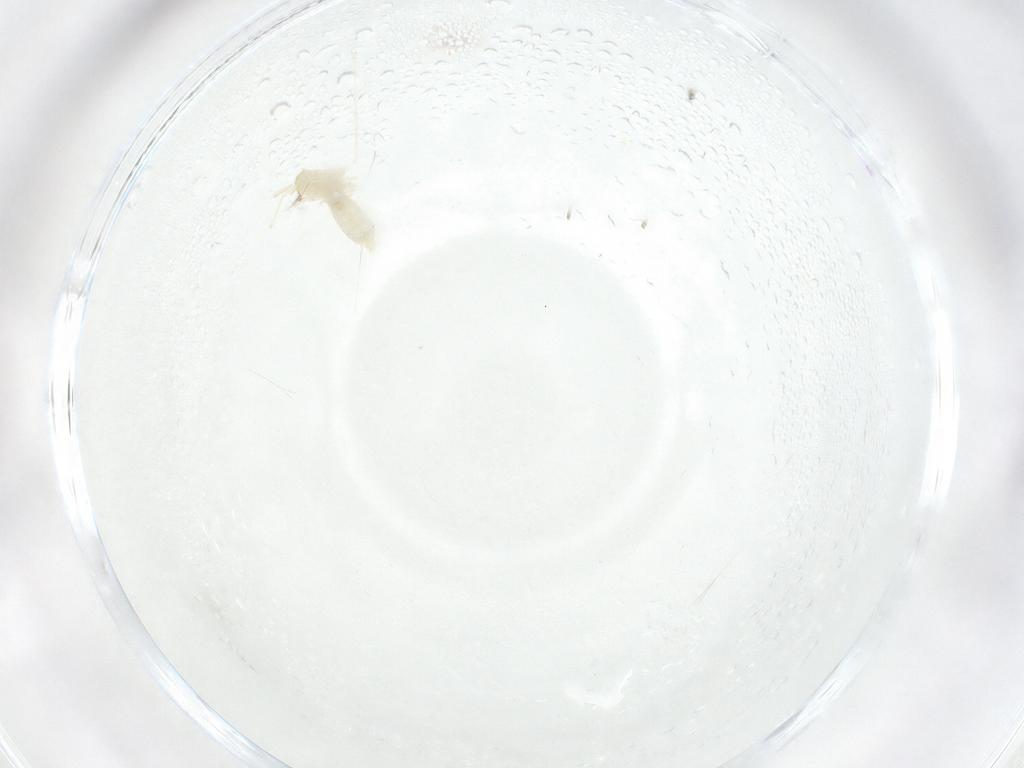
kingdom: Animalia
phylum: Arthropoda
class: Insecta
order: Diptera
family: Cecidomyiidae
